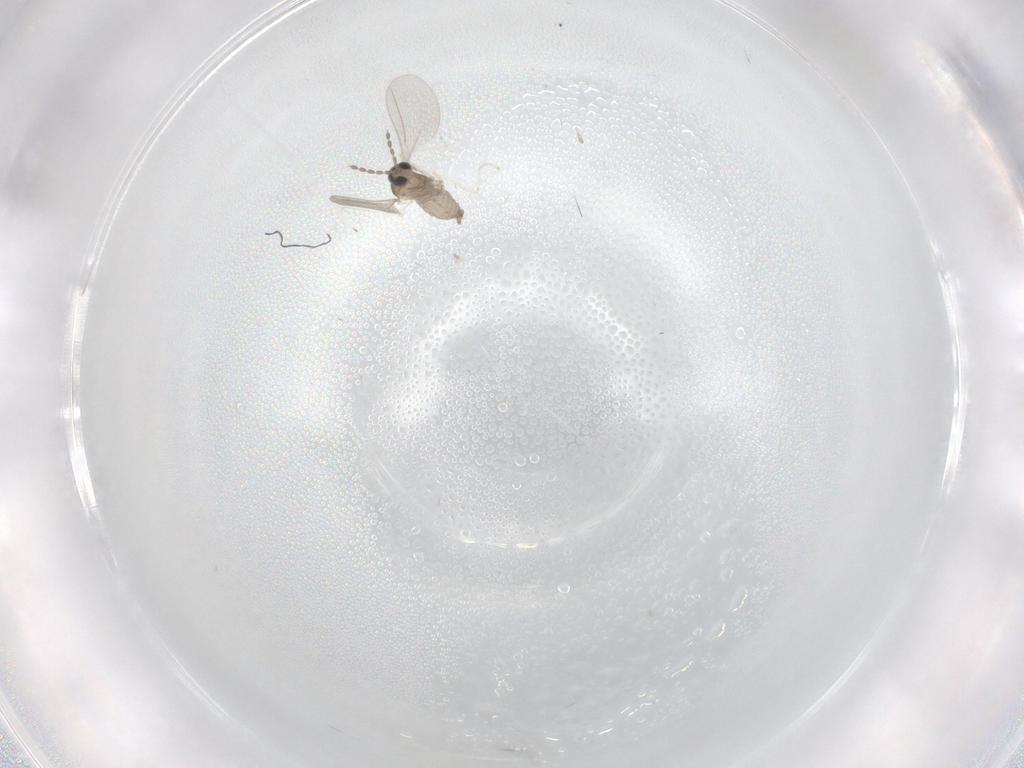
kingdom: Animalia
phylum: Arthropoda
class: Insecta
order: Diptera
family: Cecidomyiidae
